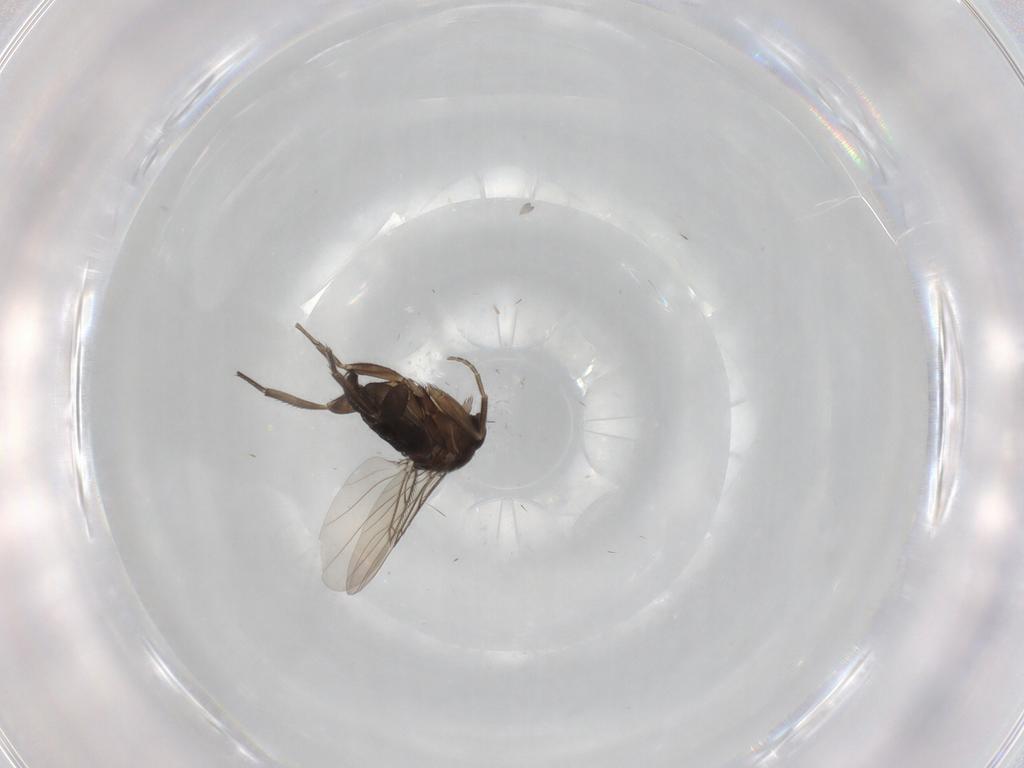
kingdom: Animalia
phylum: Arthropoda
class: Insecta
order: Diptera
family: Phoridae
